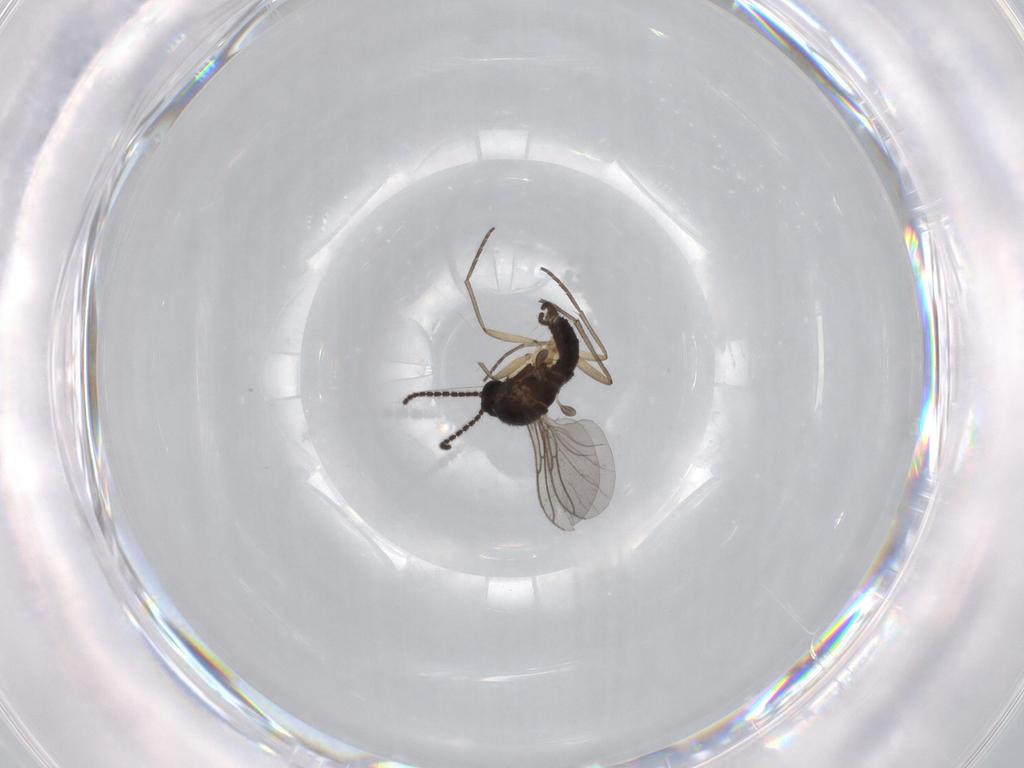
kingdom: Animalia
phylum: Arthropoda
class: Insecta
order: Diptera
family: Sciaridae
